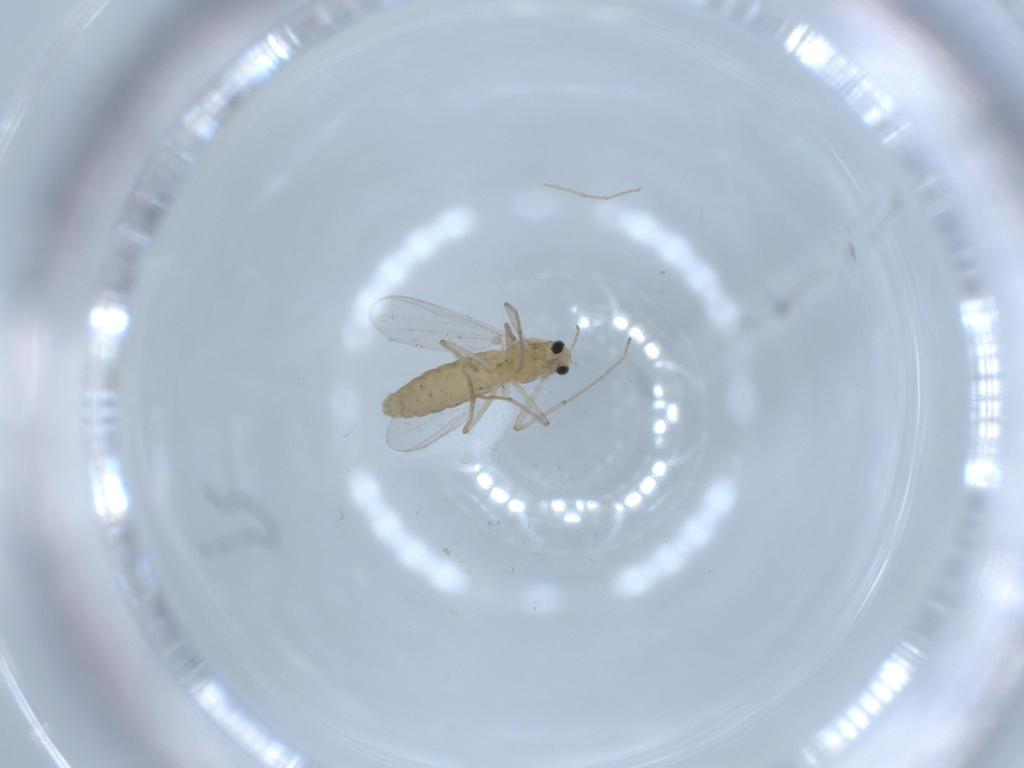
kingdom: Animalia
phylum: Arthropoda
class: Insecta
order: Diptera
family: Chironomidae
